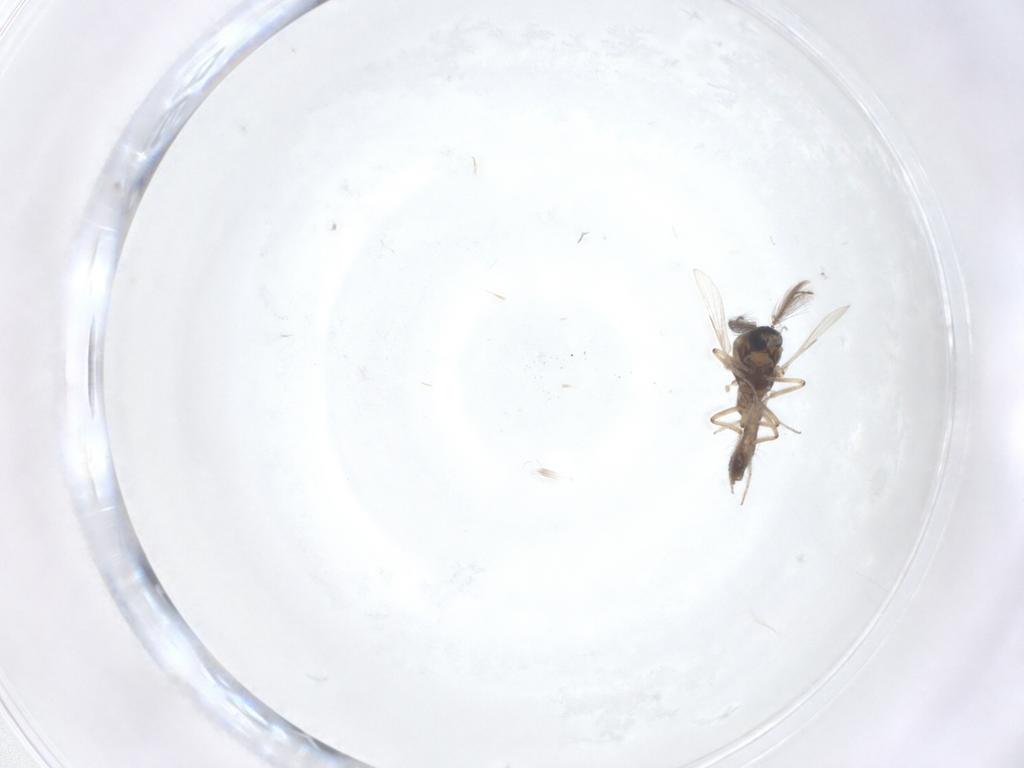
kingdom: Animalia
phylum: Arthropoda
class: Insecta
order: Diptera
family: Ceratopogonidae
